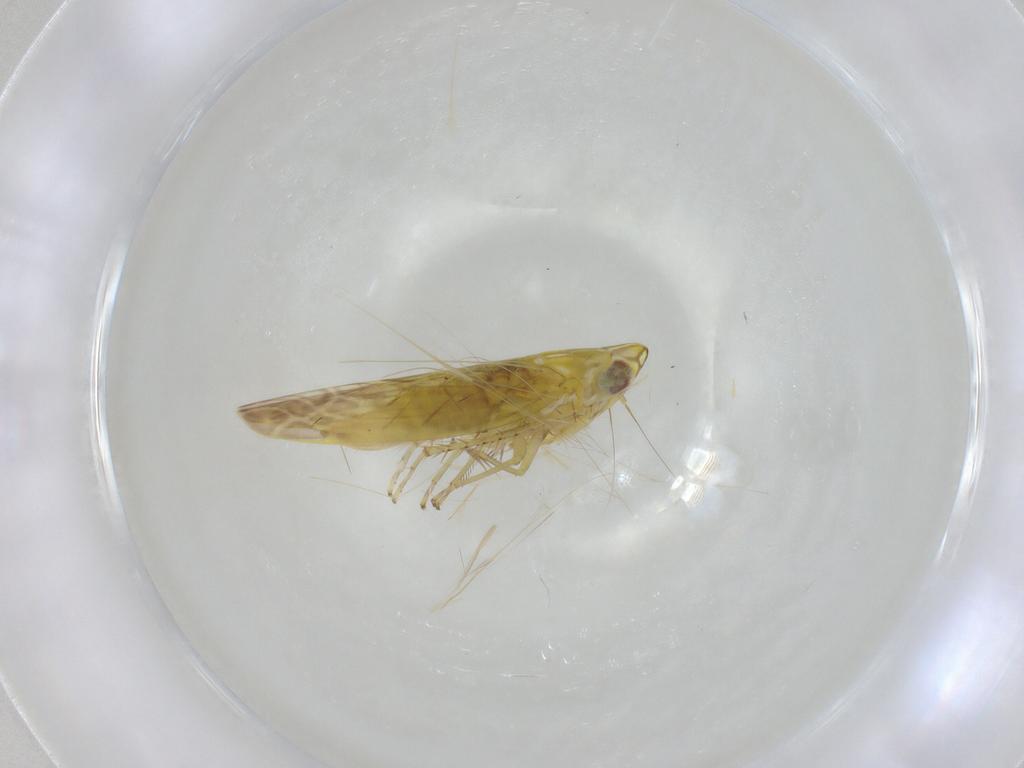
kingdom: Animalia
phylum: Arthropoda
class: Insecta
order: Hemiptera
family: Cicadellidae
